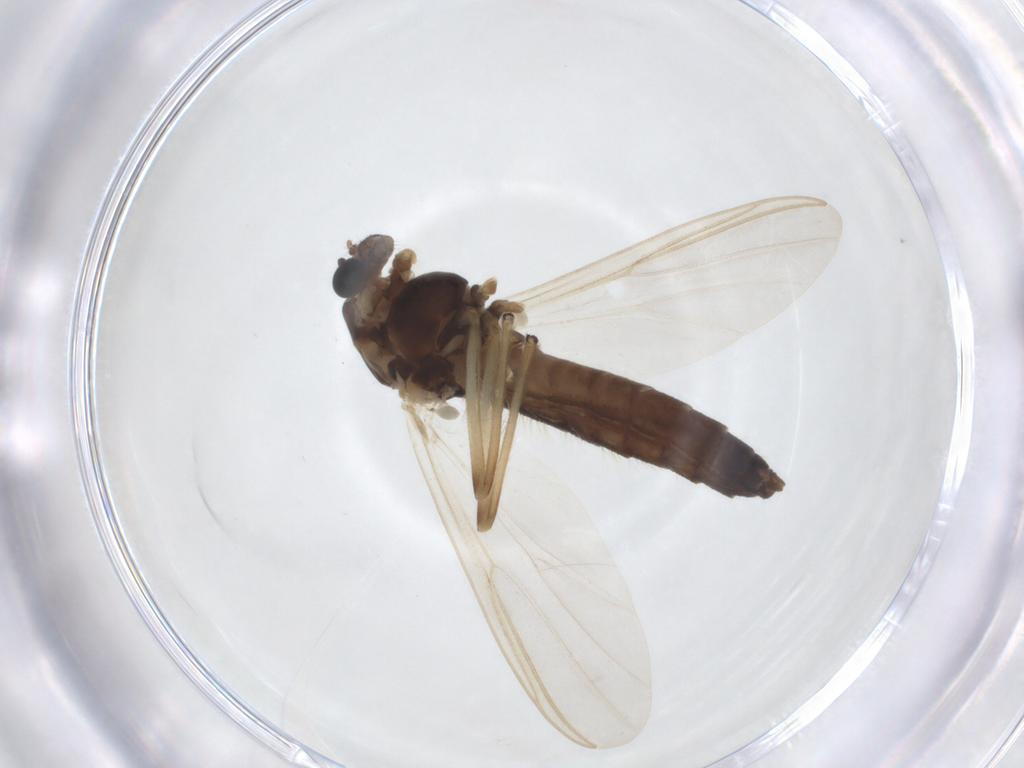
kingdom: Animalia
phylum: Arthropoda
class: Insecta
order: Diptera
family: Chironomidae
